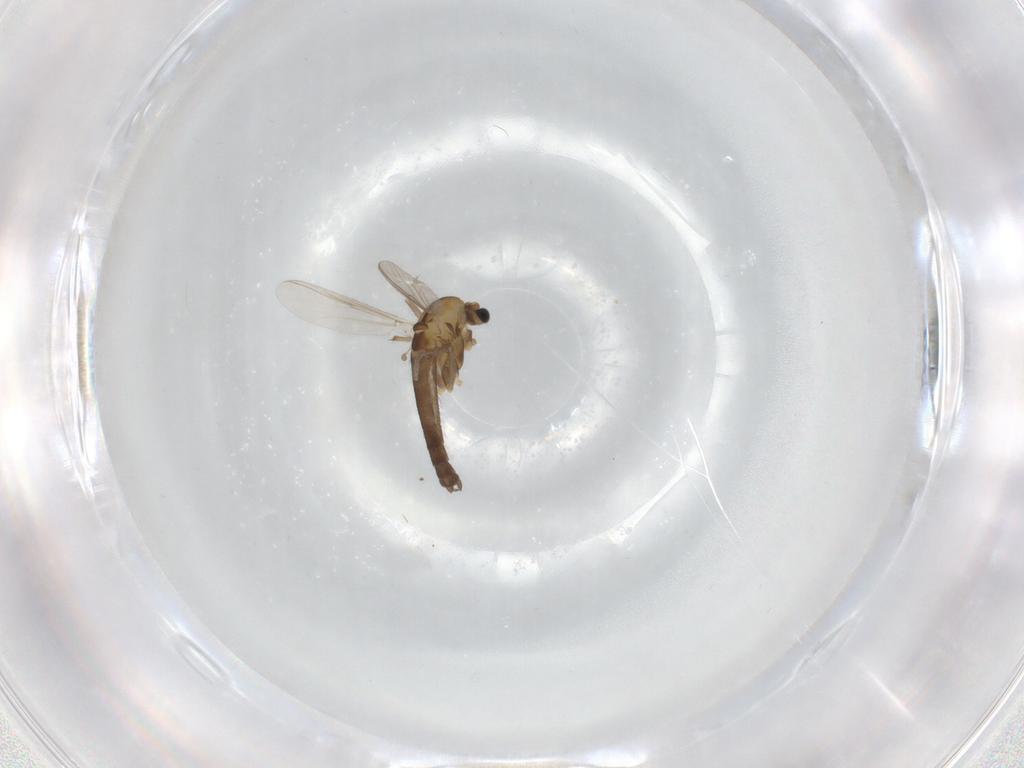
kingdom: Animalia
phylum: Arthropoda
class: Insecta
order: Diptera
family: Chironomidae
